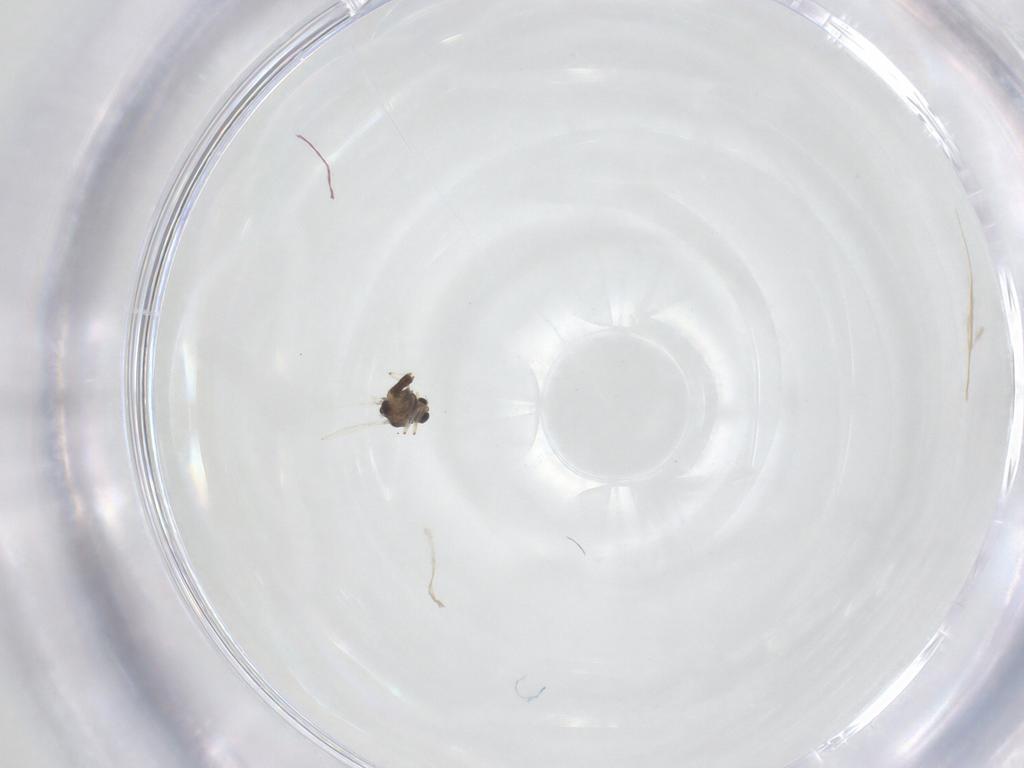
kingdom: Animalia
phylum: Arthropoda
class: Insecta
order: Diptera
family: Chironomidae
